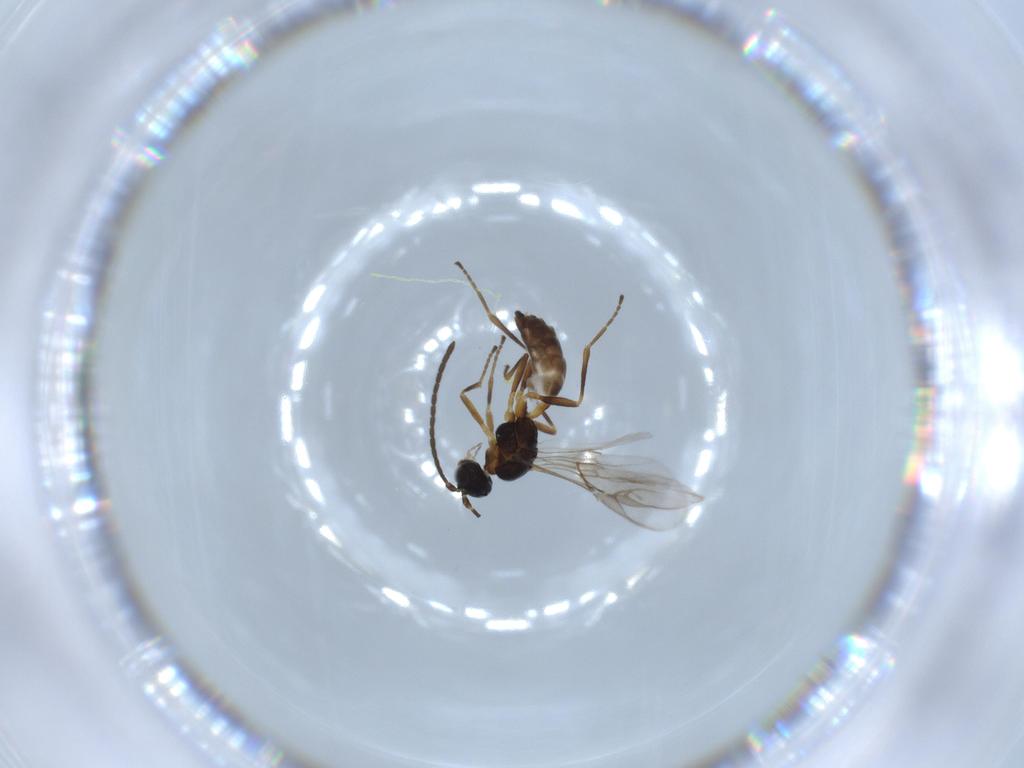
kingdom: Animalia
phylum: Arthropoda
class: Insecta
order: Hymenoptera
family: Braconidae
